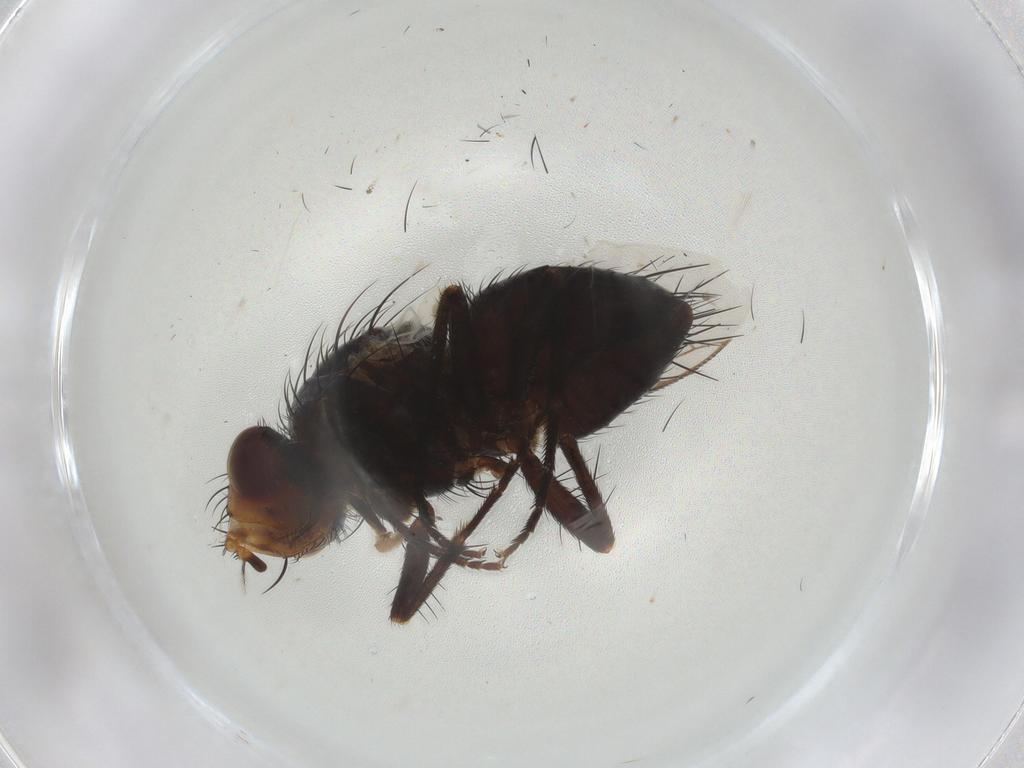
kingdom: Animalia
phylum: Arthropoda
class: Insecta
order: Diptera
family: Tachinidae
